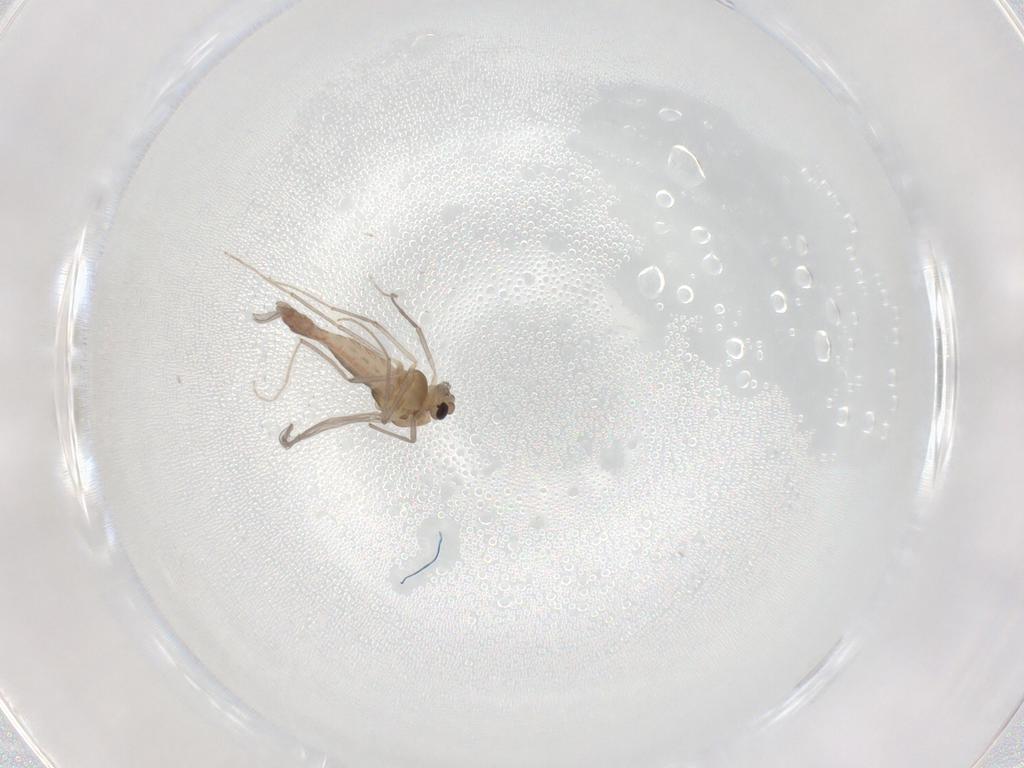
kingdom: Animalia
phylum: Arthropoda
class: Insecta
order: Diptera
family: Chironomidae
